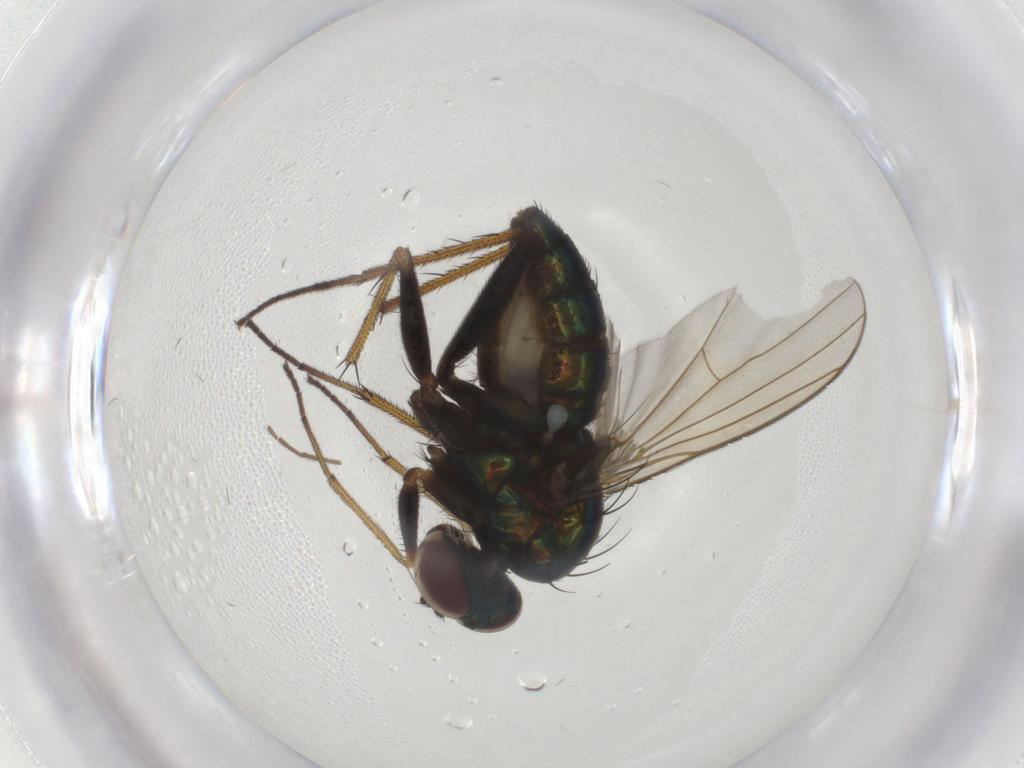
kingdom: Animalia
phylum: Arthropoda
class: Insecta
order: Diptera
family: Dolichopodidae
